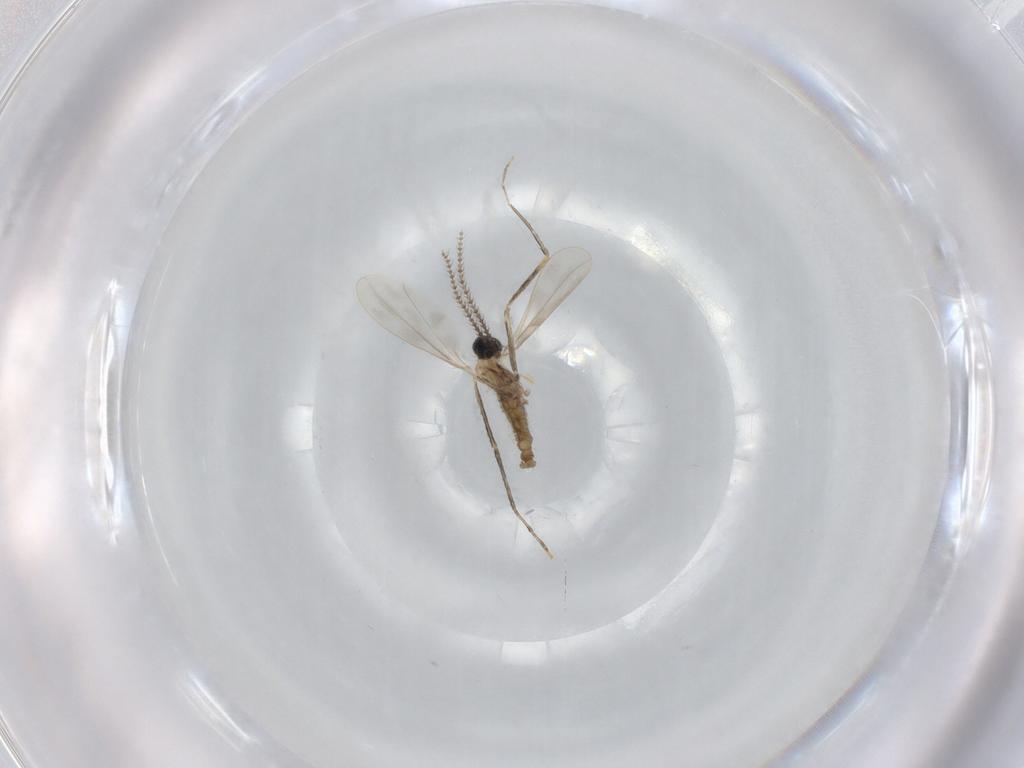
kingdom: Animalia
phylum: Arthropoda
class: Insecta
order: Diptera
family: Cecidomyiidae
